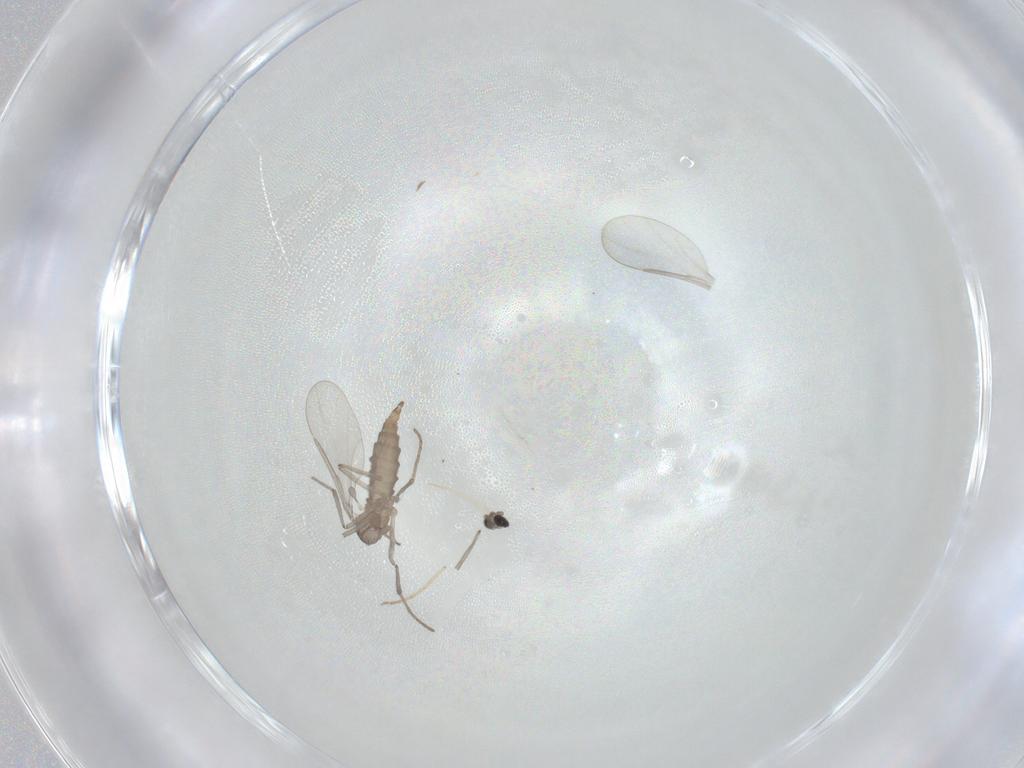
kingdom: Animalia
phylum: Arthropoda
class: Insecta
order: Diptera
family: Cecidomyiidae
